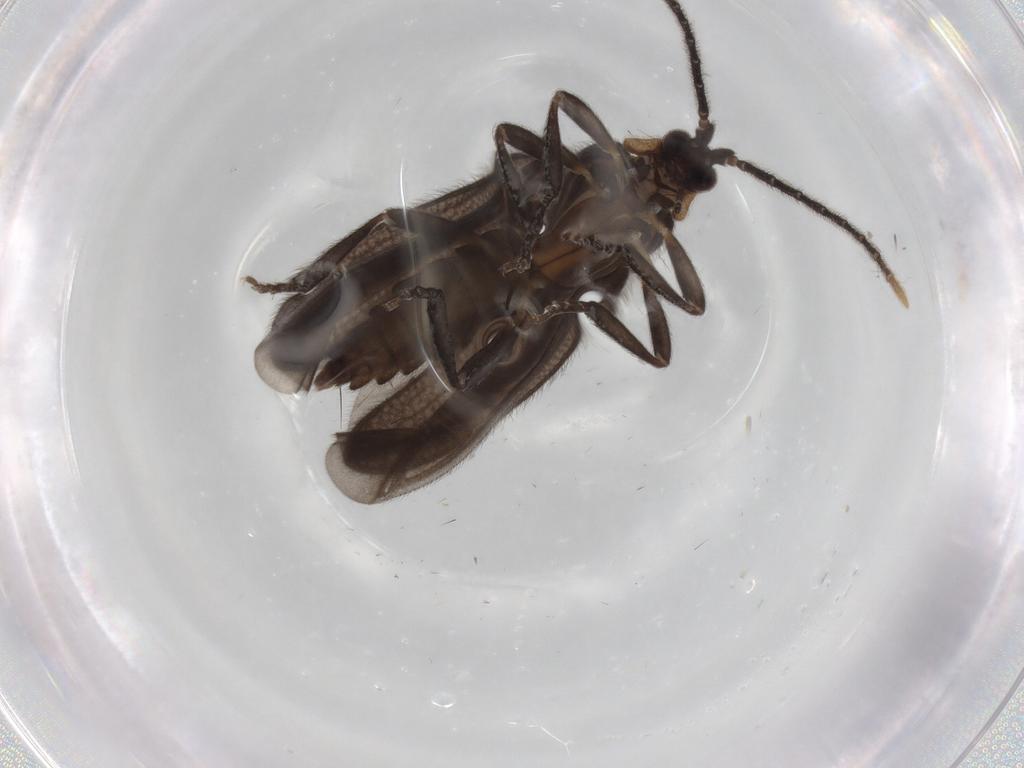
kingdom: Animalia
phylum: Arthropoda
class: Insecta
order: Coleoptera
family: Lycidae
